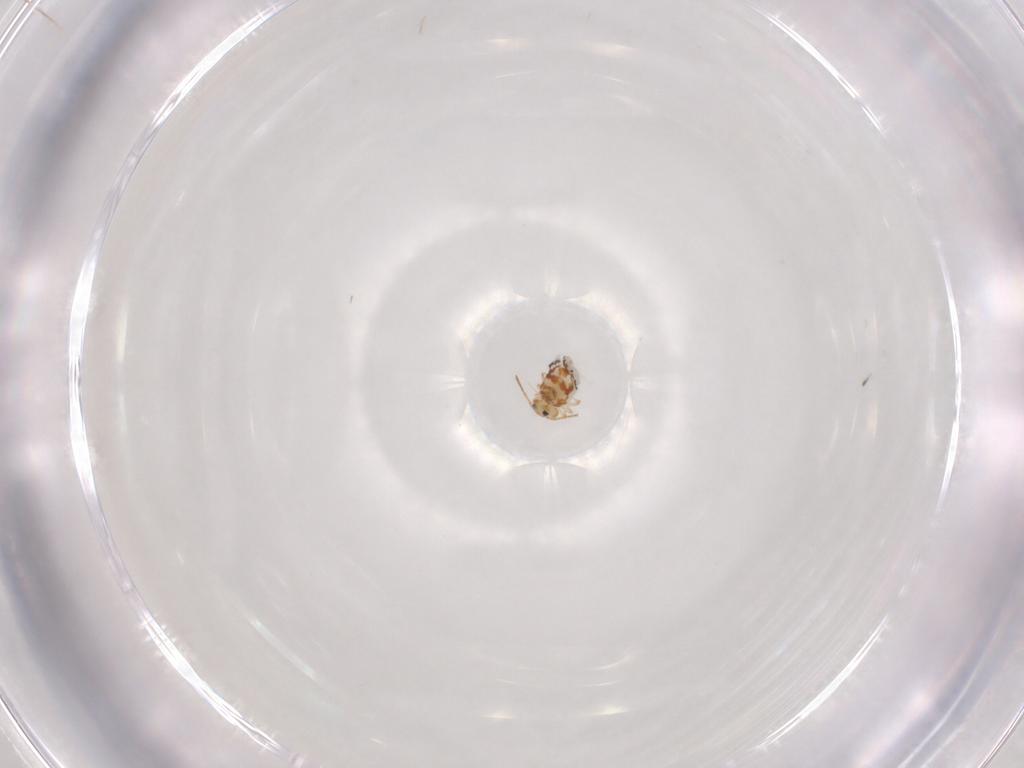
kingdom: Animalia
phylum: Arthropoda
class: Collembola
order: Symphypleona
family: Bourletiellidae
